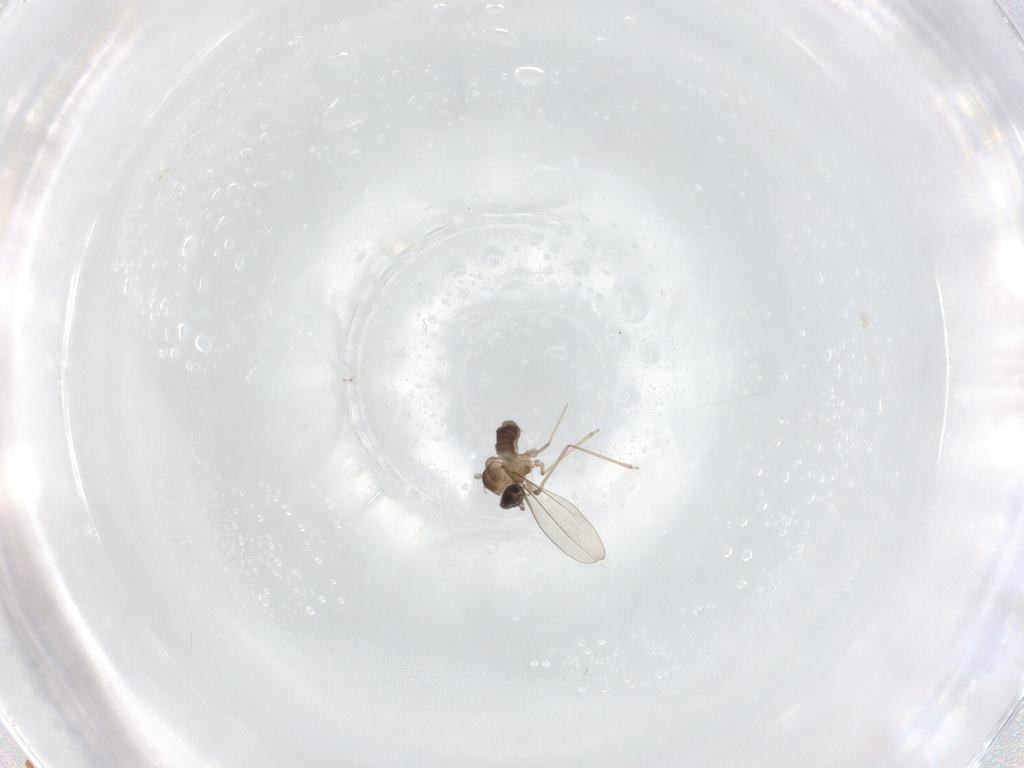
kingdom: Animalia
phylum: Arthropoda
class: Insecta
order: Diptera
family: Cecidomyiidae
